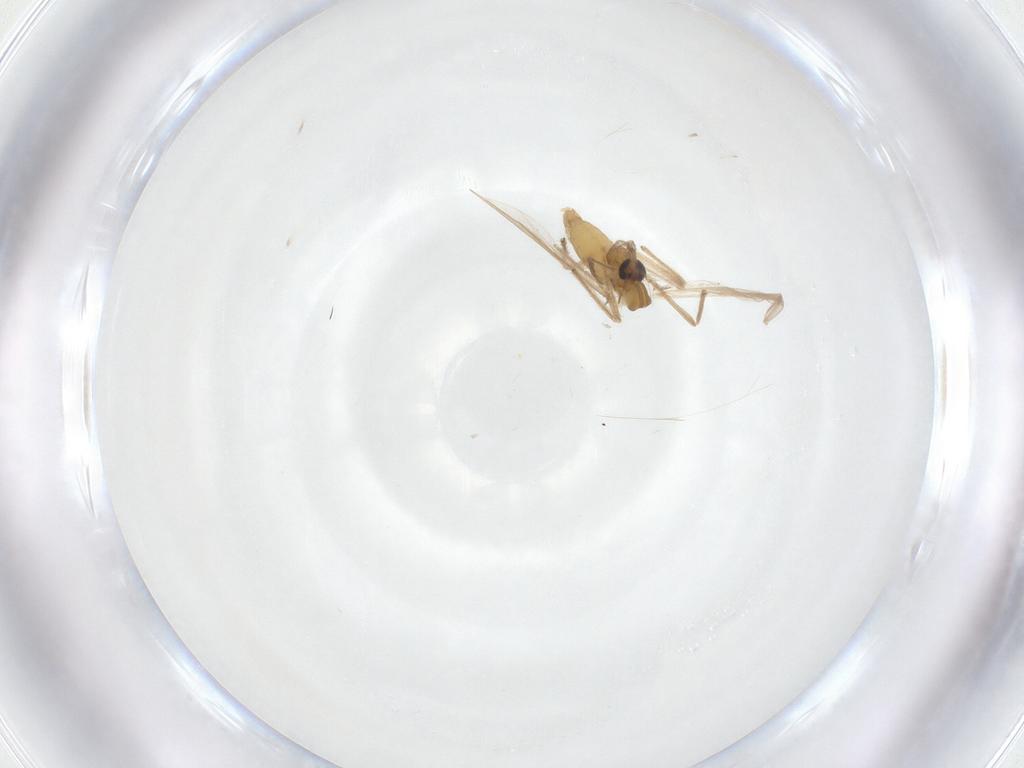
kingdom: Animalia
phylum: Arthropoda
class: Insecta
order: Diptera
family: Chironomidae
